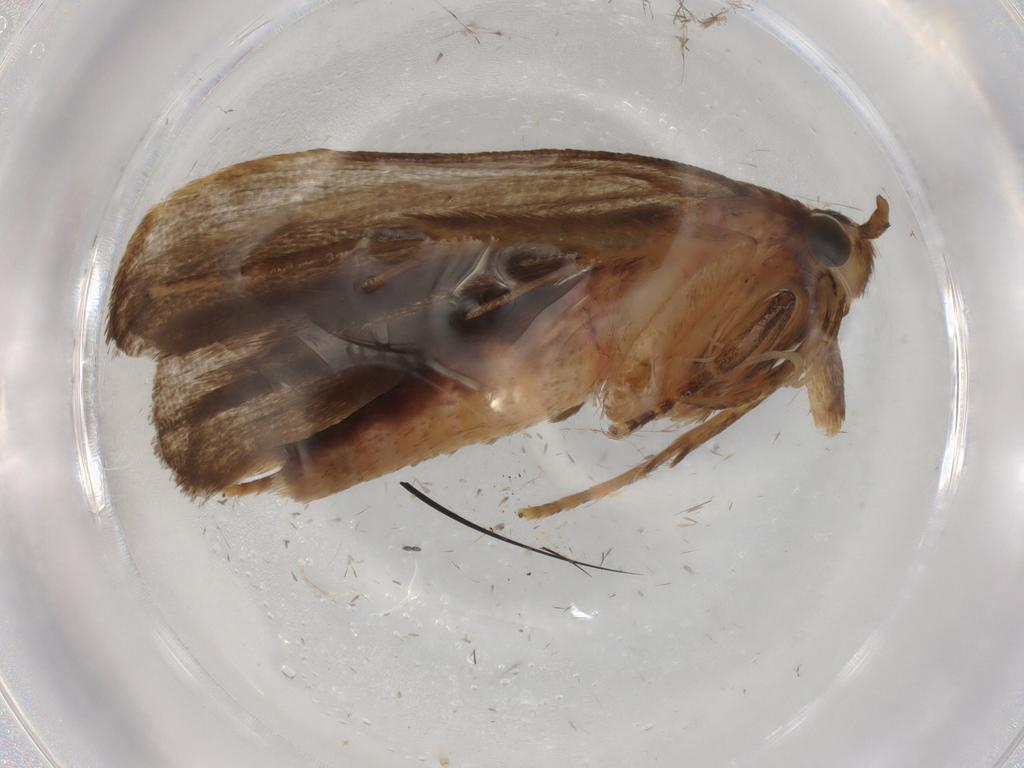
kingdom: Animalia
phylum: Arthropoda
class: Insecta
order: Lepidoptera
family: Autostichidae
